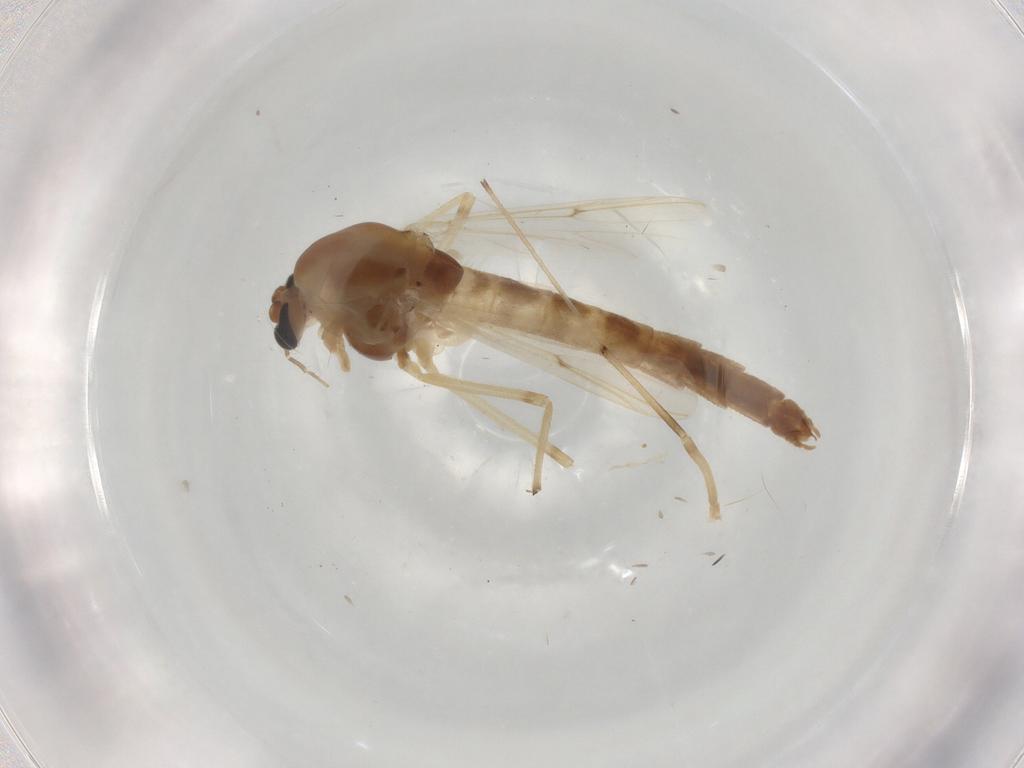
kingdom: Animalia
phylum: Arthropoda
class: Insecta
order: Diptera
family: Chironomidae
